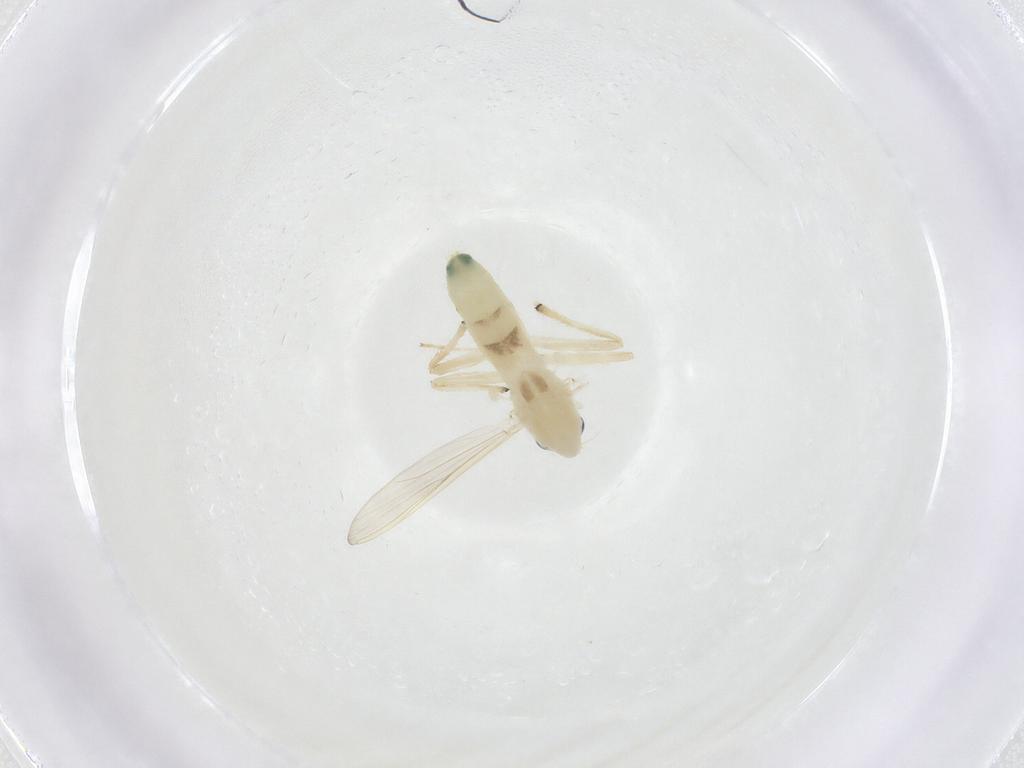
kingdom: Animalia
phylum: Arthropoda
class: Insecta
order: Diptera
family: Chironomidae
